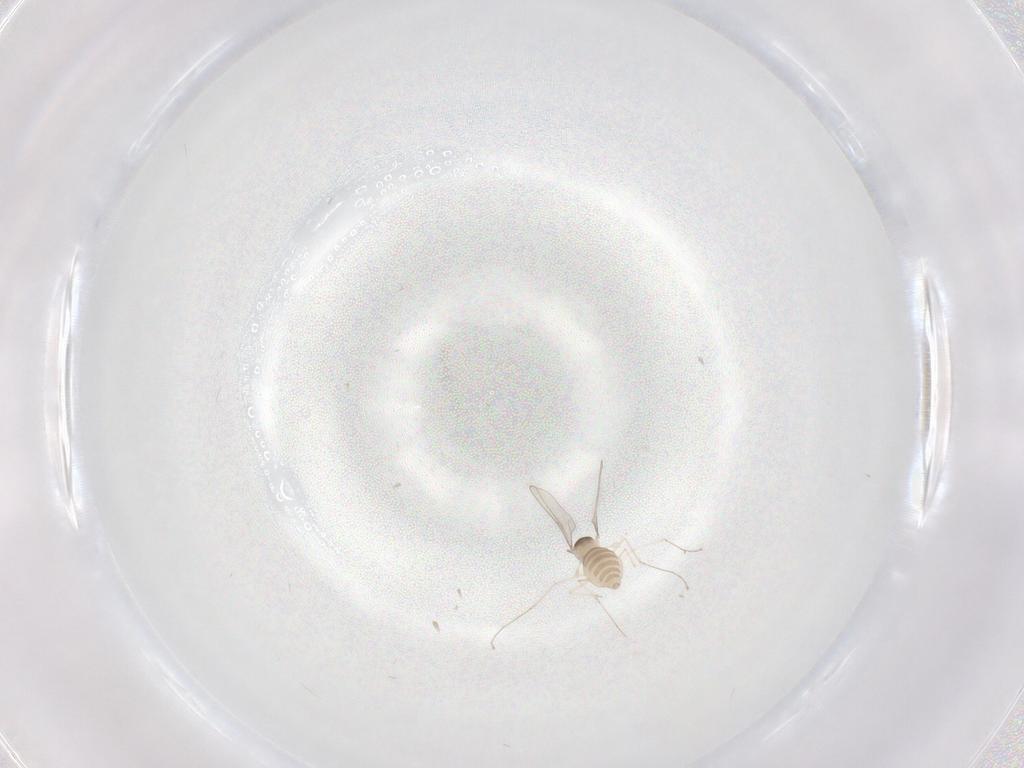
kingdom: Animalia
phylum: Arthropoda
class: Insecta
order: Diptera
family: Cecidomyiidae
